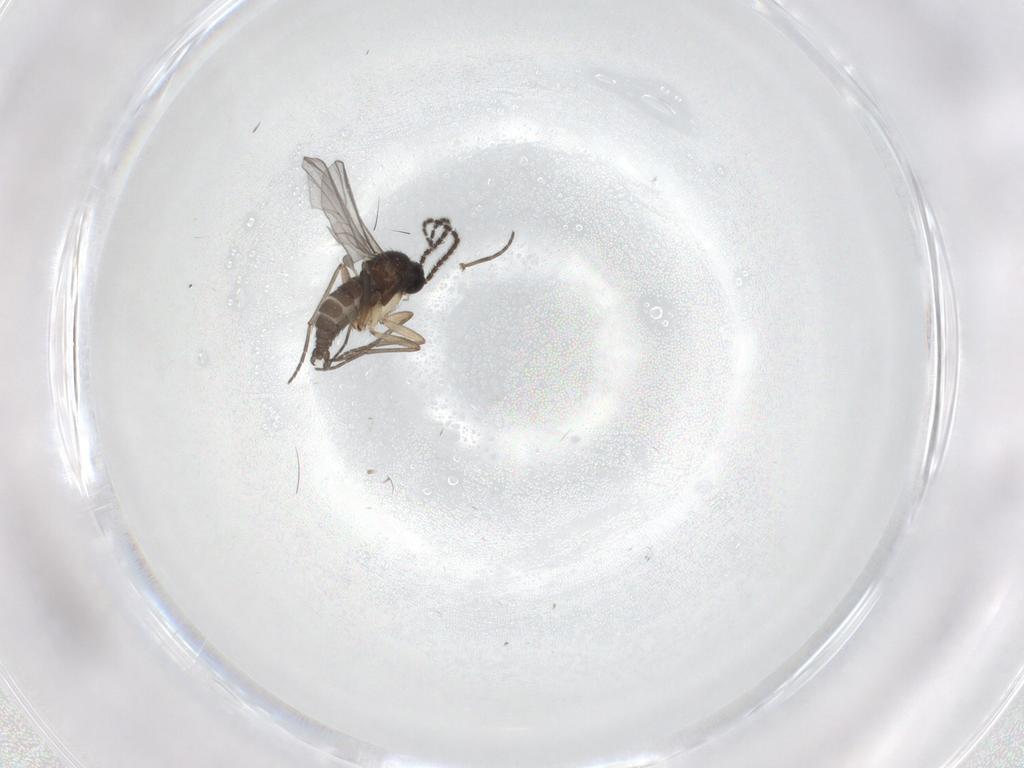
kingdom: Animalia
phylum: Arthropoda
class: Insecta
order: Diptera
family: Sciaridae
